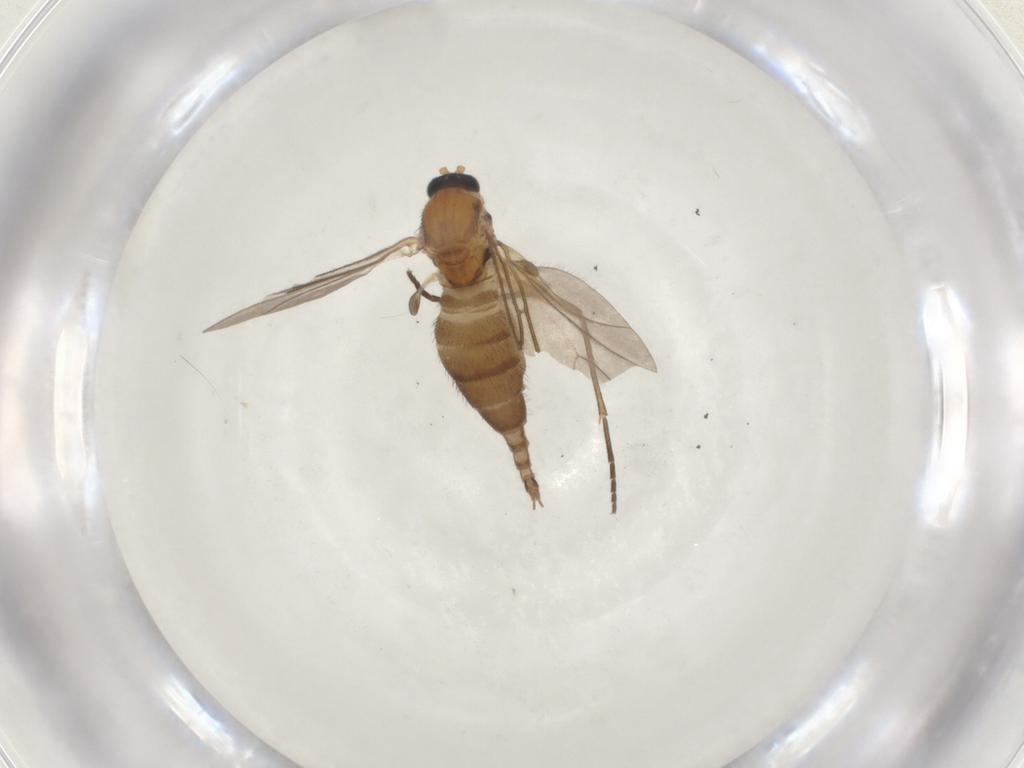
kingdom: Animalia
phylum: Arthropoda
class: Insecta
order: Diptera
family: Sciaridae
